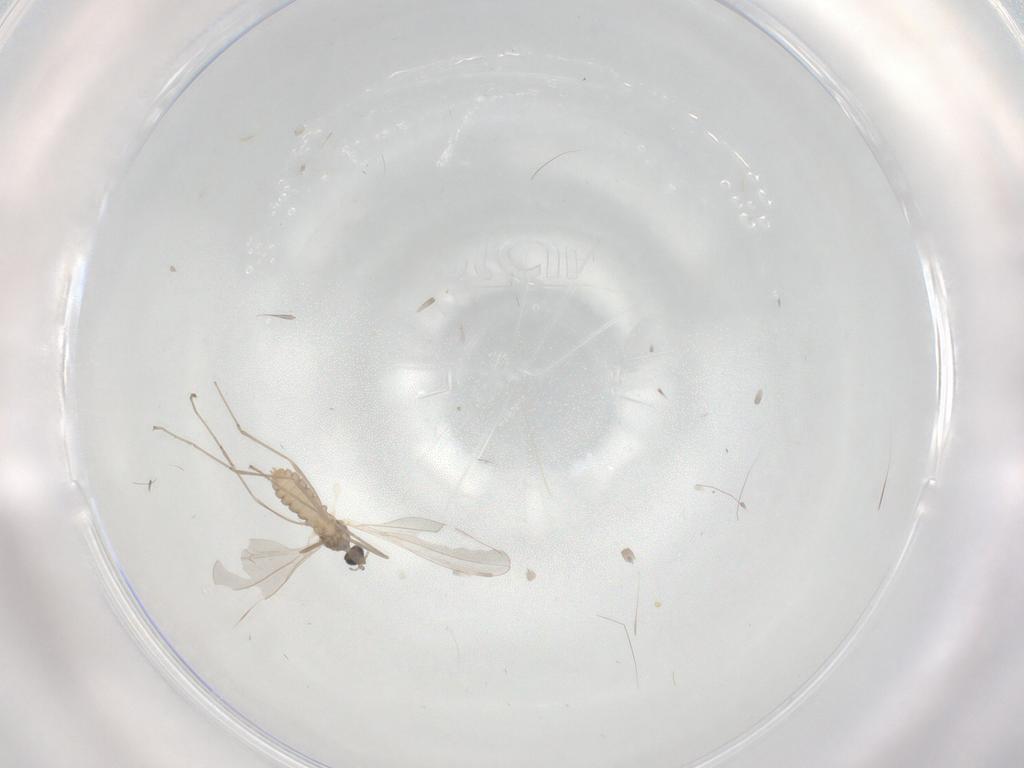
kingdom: Animalia
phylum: Arthropoda
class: Insecta
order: Diptera
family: Cecidomyiidae
